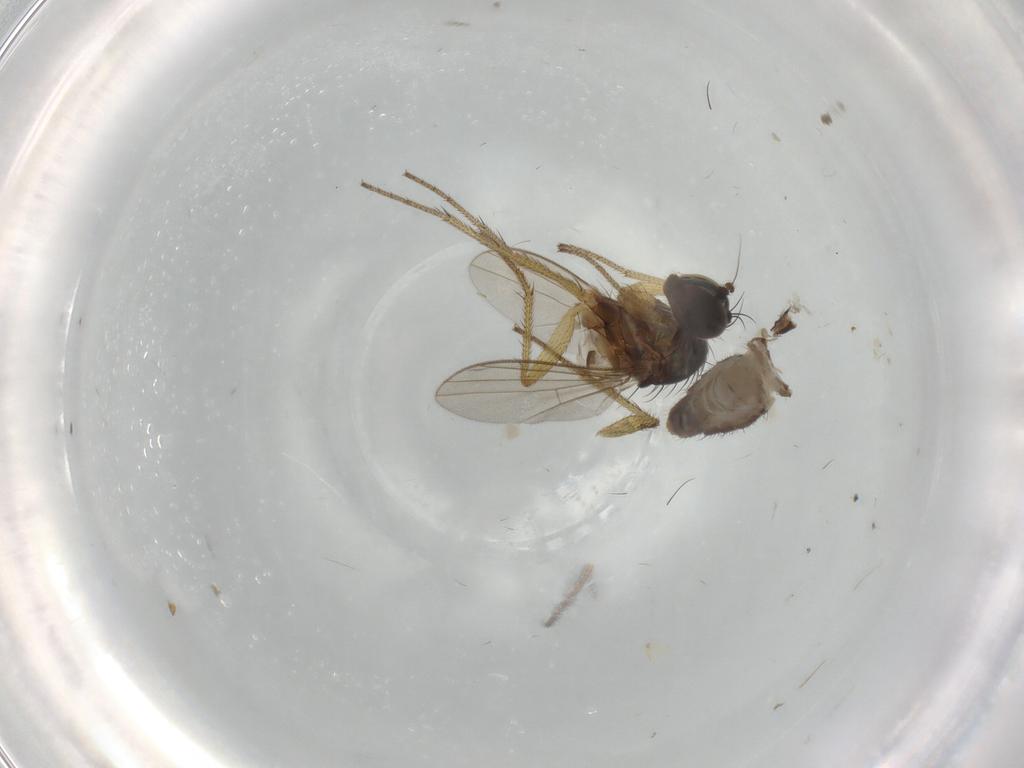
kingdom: Animalia
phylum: Arthropoda
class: Insecta
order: Diptera
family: Dolichopodidae
